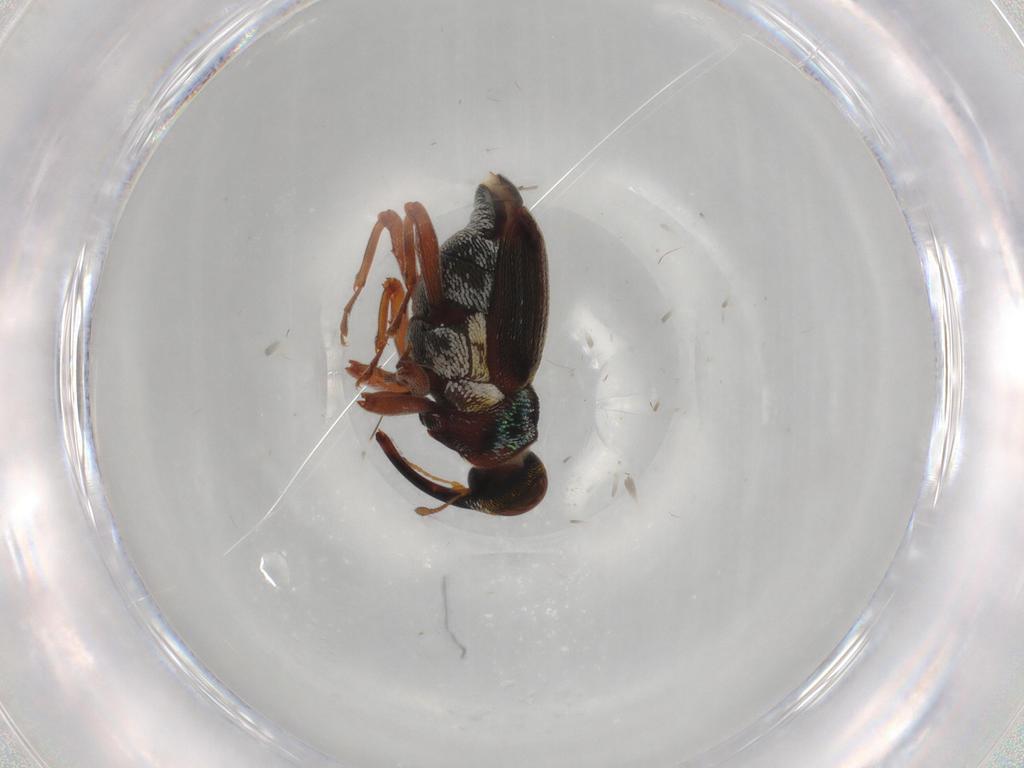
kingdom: Animalia
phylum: Arthropoda
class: Insecta
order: Coleoptera
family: Curculionidae
